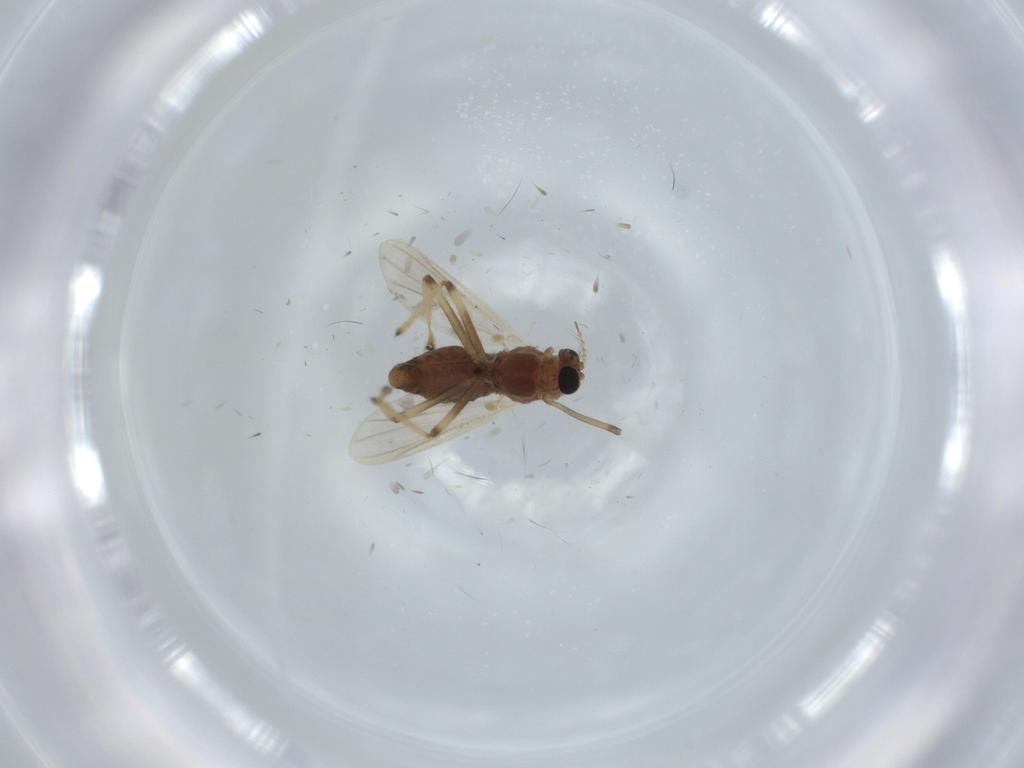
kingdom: Animalia
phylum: Arthropoda
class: Insecta
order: Diptera
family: Chironomidae
